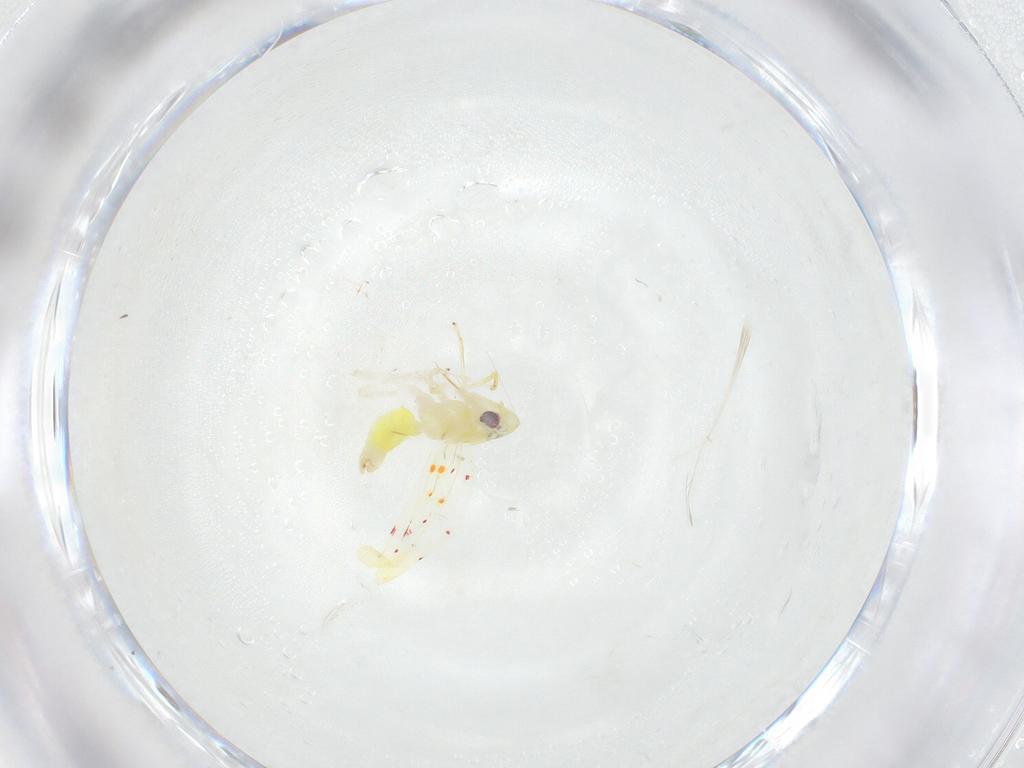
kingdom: Animalia
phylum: Arthropoda
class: Insecta
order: Hemiptera
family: Cicadellidae
